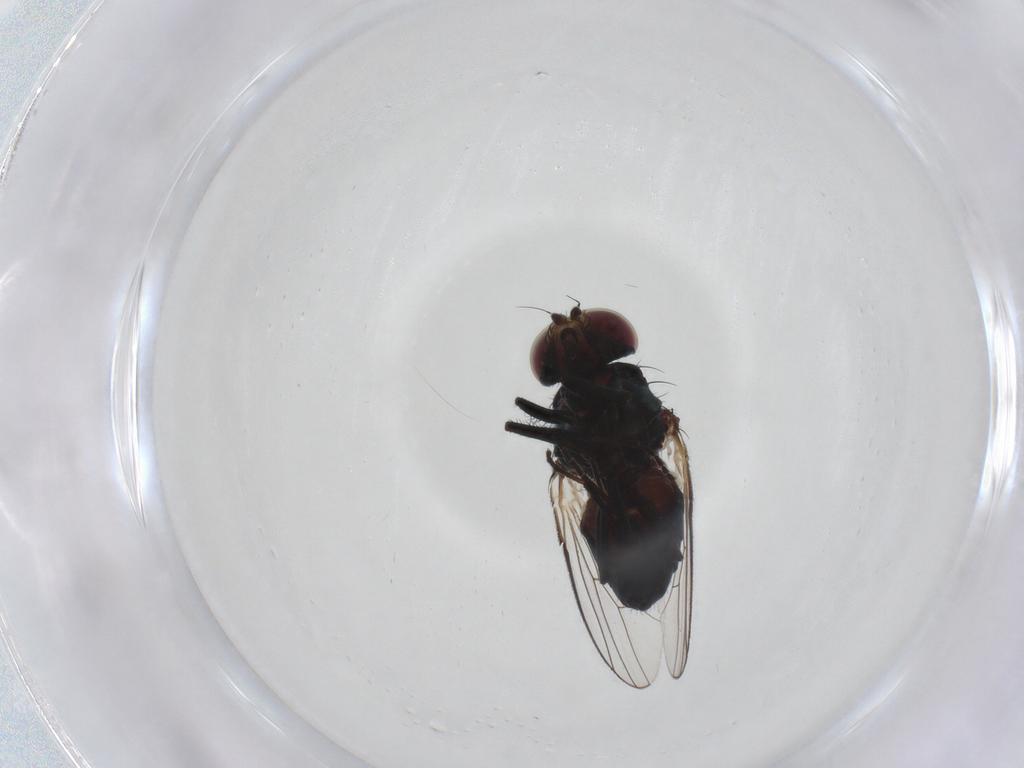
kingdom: Animalia
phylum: Arthropoda
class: Insecta
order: Diptera
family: Carnidae
